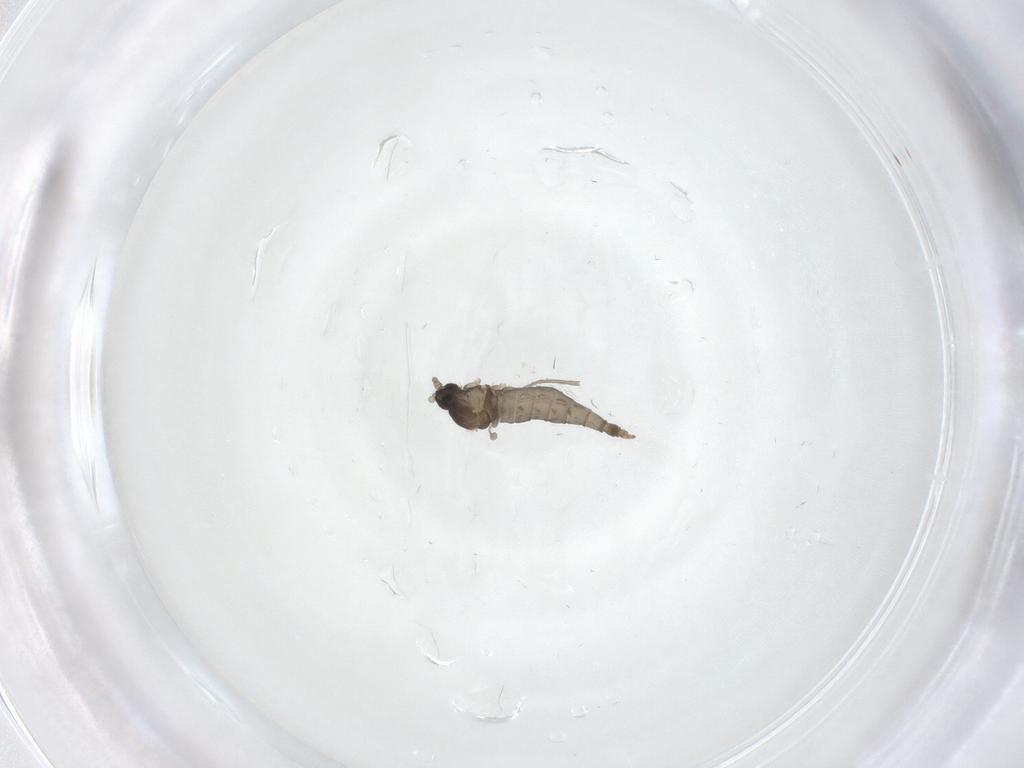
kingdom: Animalia
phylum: Arthropoda
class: Insecta
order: Diptera
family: Cecidomyiidae
